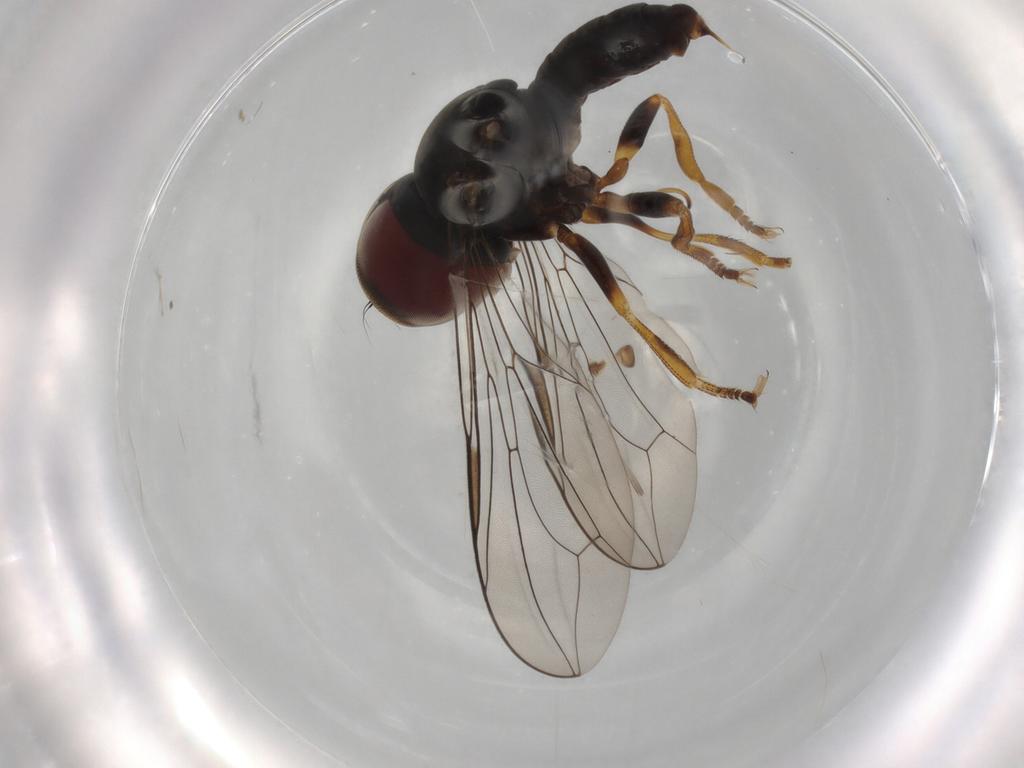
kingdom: Animalia
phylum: Arthropoda
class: Insecta
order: Diptera
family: Pipunculidae
